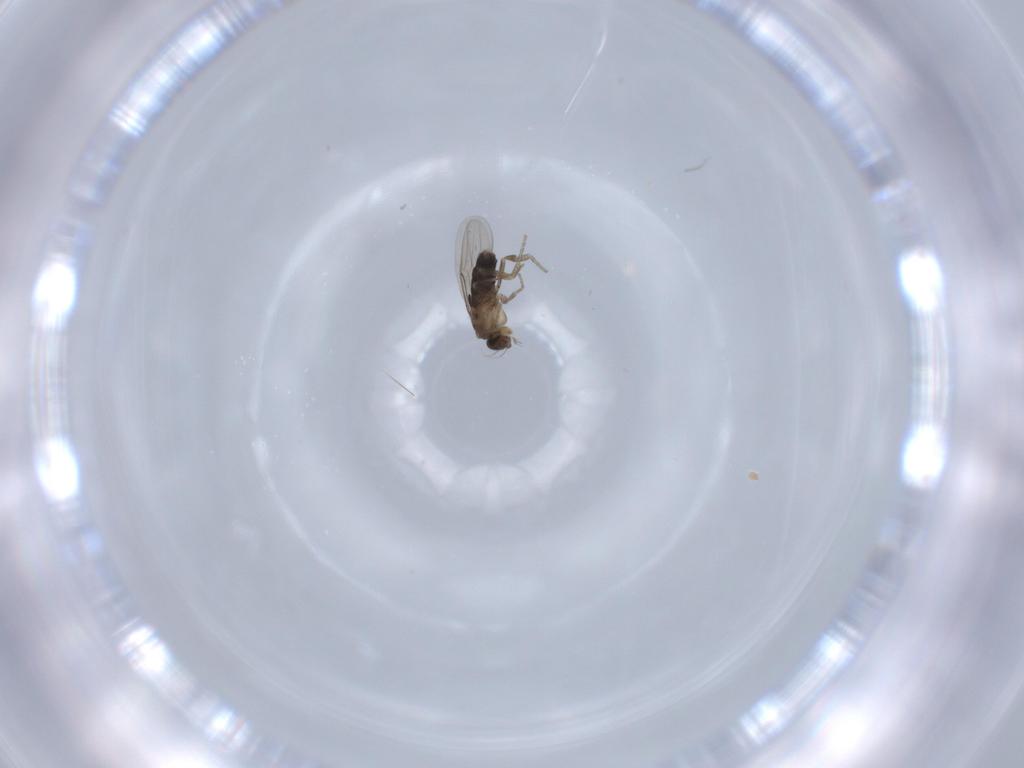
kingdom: Animalia
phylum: Arthropoda
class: Insecta
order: Diptera
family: Phoridae
